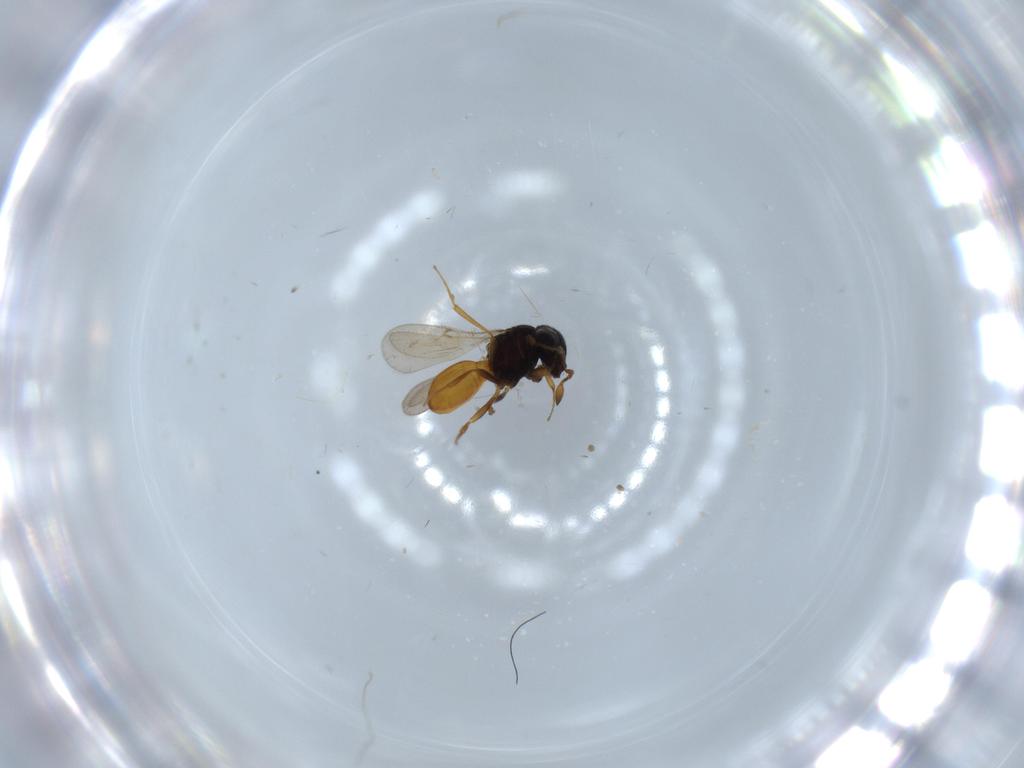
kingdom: Animalia
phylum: Arthropoda
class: Insecta
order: Hymenoptera
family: Scelionidae
